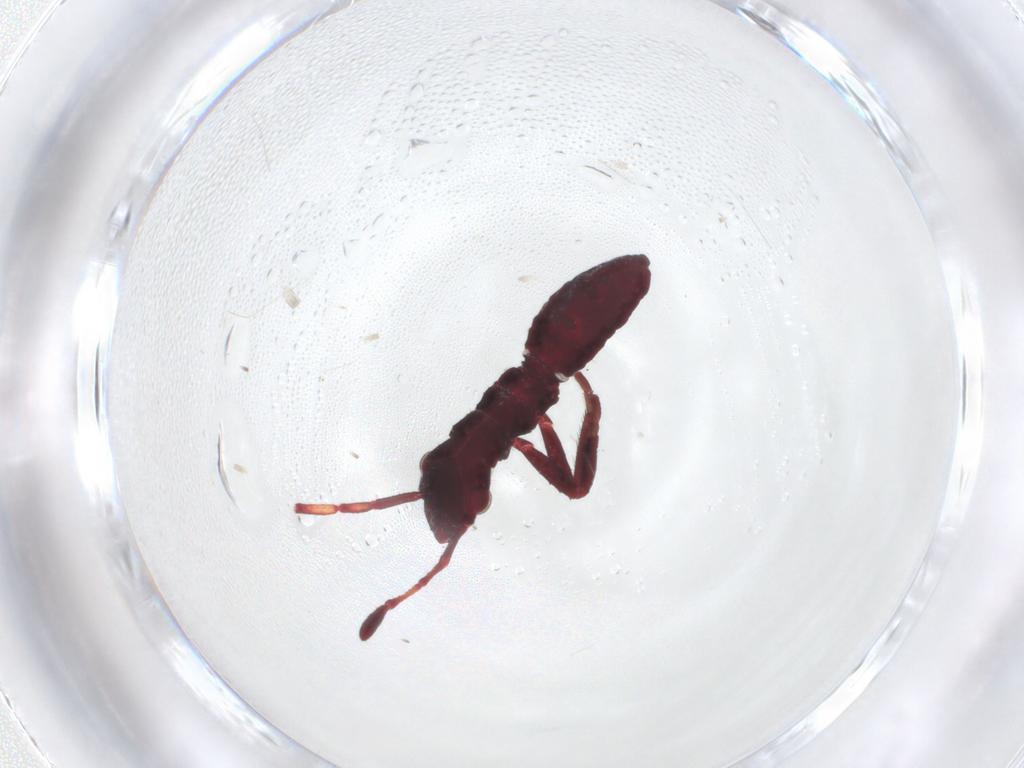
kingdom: Animalia
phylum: Arthropoda
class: Insecta
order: Hemiptera
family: Alydidae
